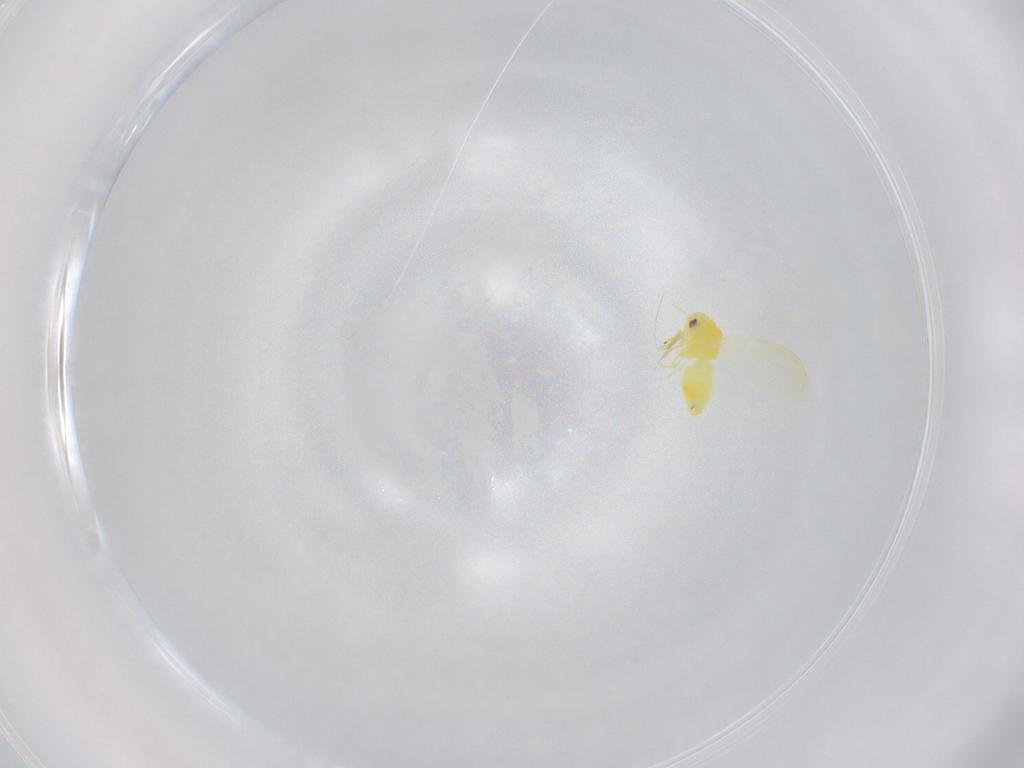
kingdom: Animalia
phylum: Arthropoda
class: Insecta
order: Hemiptera
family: Aleyrodidae
